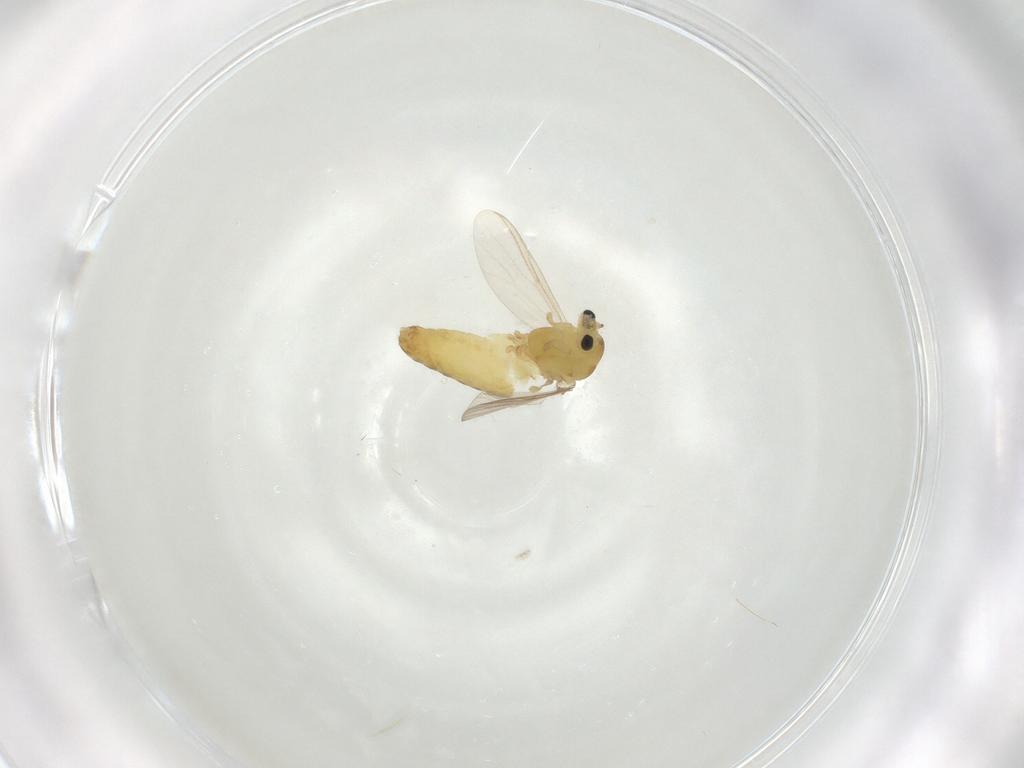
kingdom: Animalia
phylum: Arthropoda
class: Insecta
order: Diptera
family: Chironomidae
